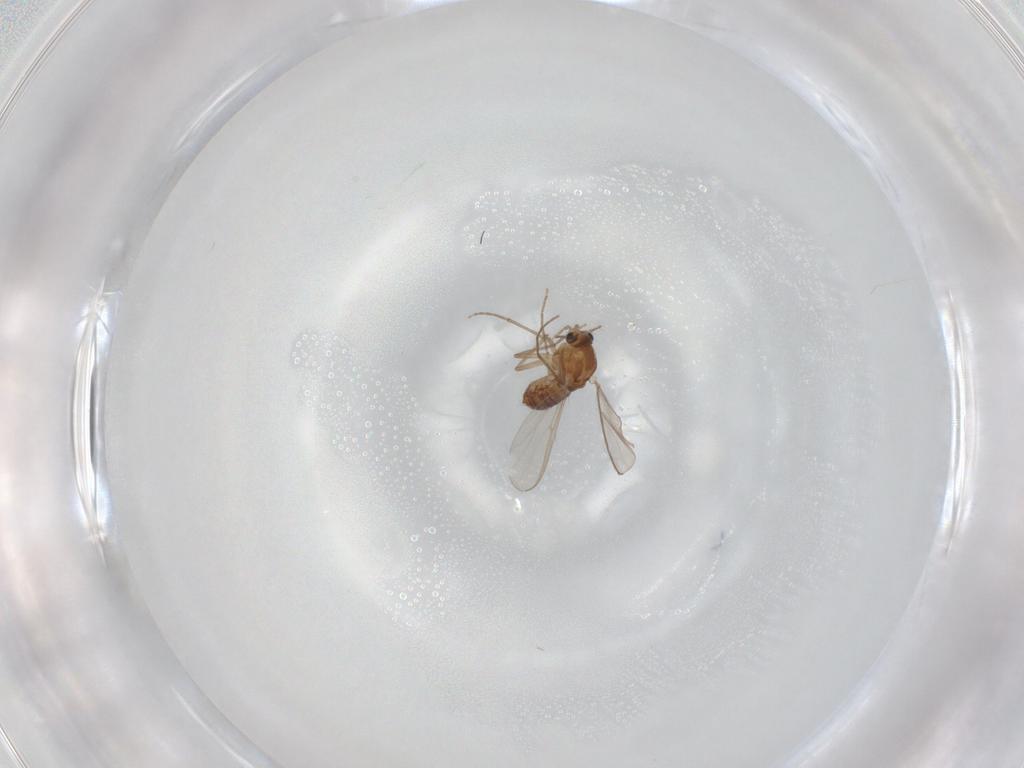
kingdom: Animalia
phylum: Arthropoda
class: Insecta
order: Diptera
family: Chironomidae
